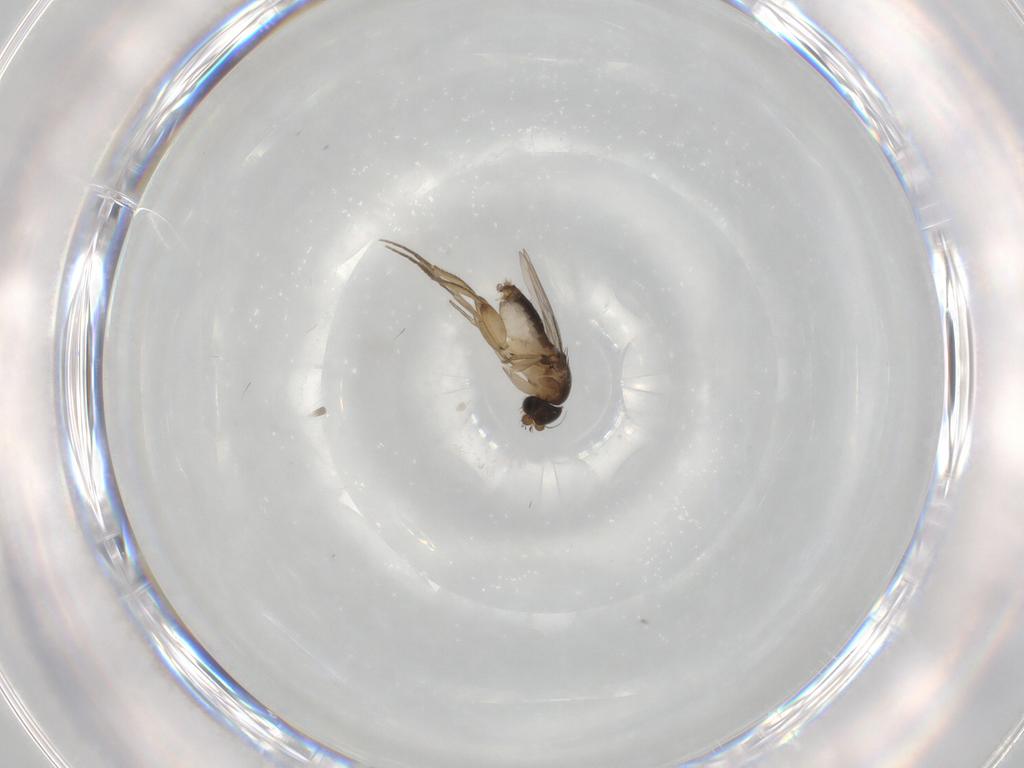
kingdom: Animalia
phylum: Arthropoda
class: Insecta
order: Diptera
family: Phoridae
